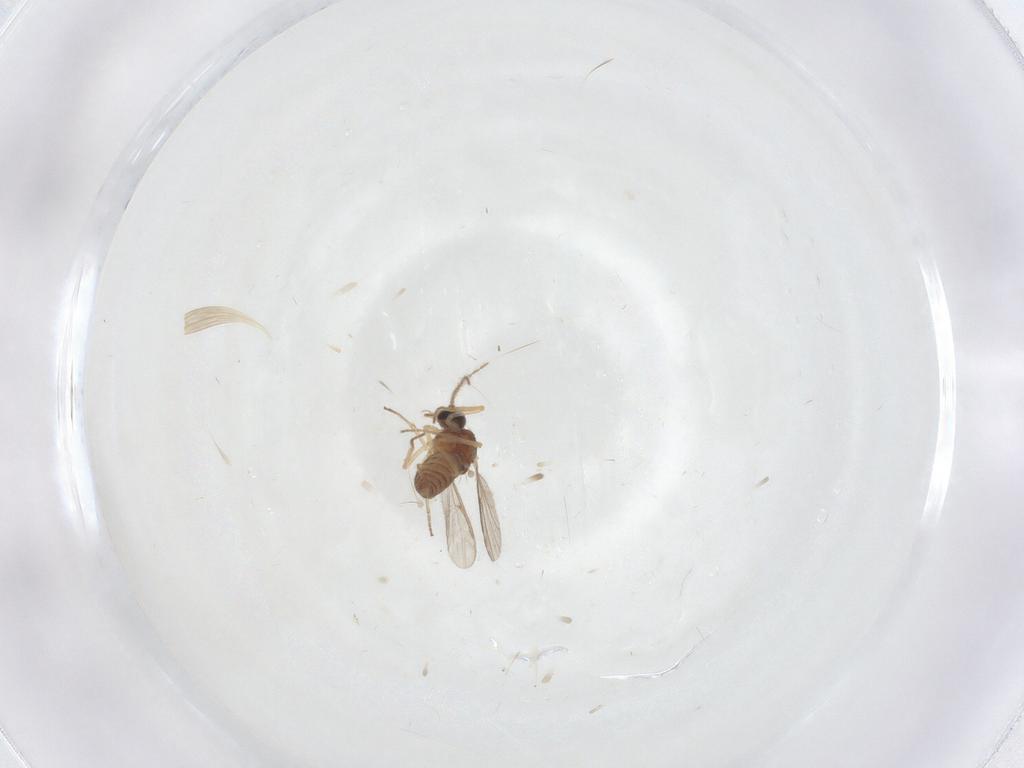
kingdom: Animalia
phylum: Arthropoda
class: Insecta
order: Diptera
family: Ceratopogonidae
